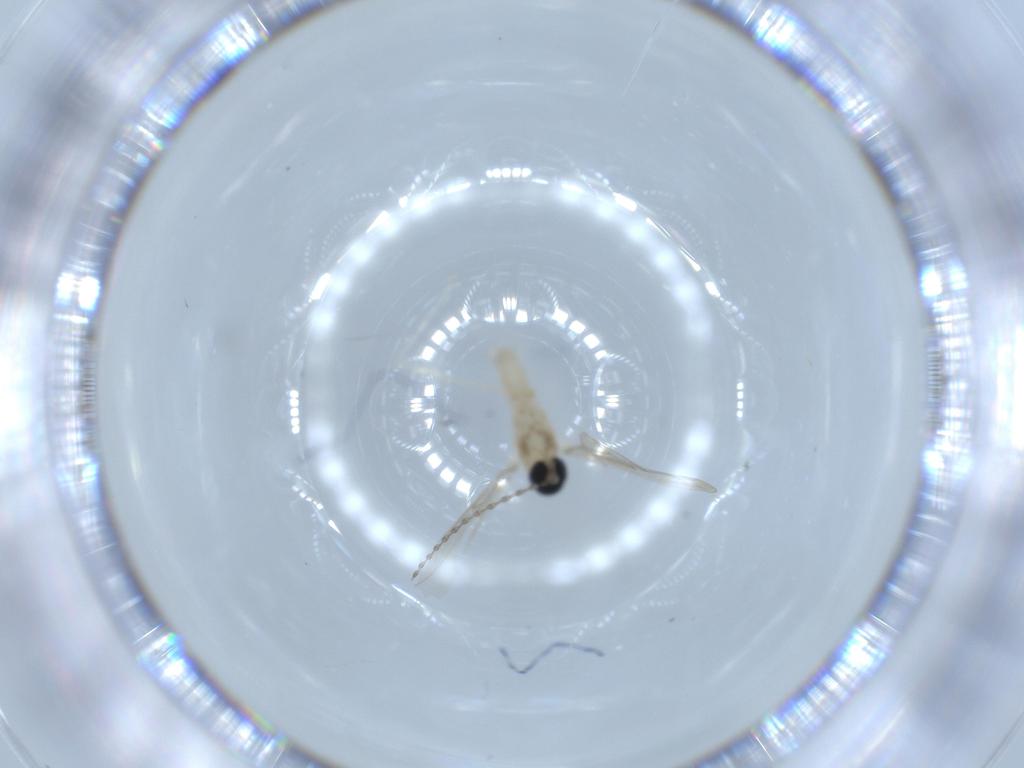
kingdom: Animalia
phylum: Arthropoda
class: Insecta
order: Diptera
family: Cecidomyiidae
